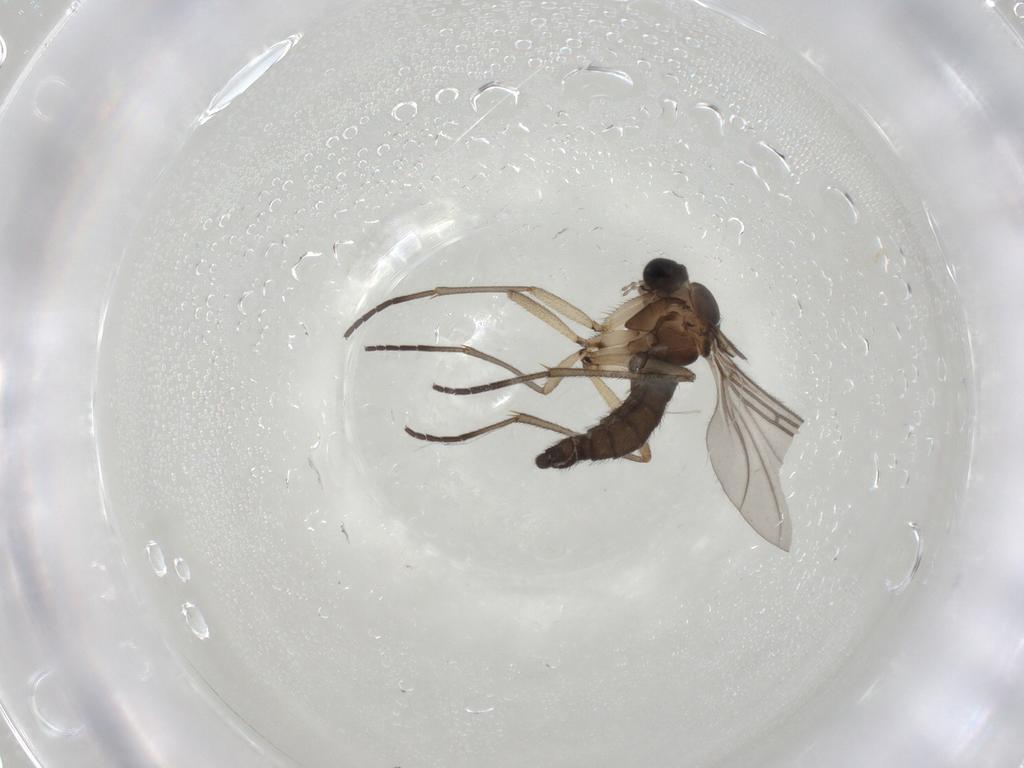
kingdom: Animalia
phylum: Arthropoda
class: Insecta
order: Diptera
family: Sciaridae
